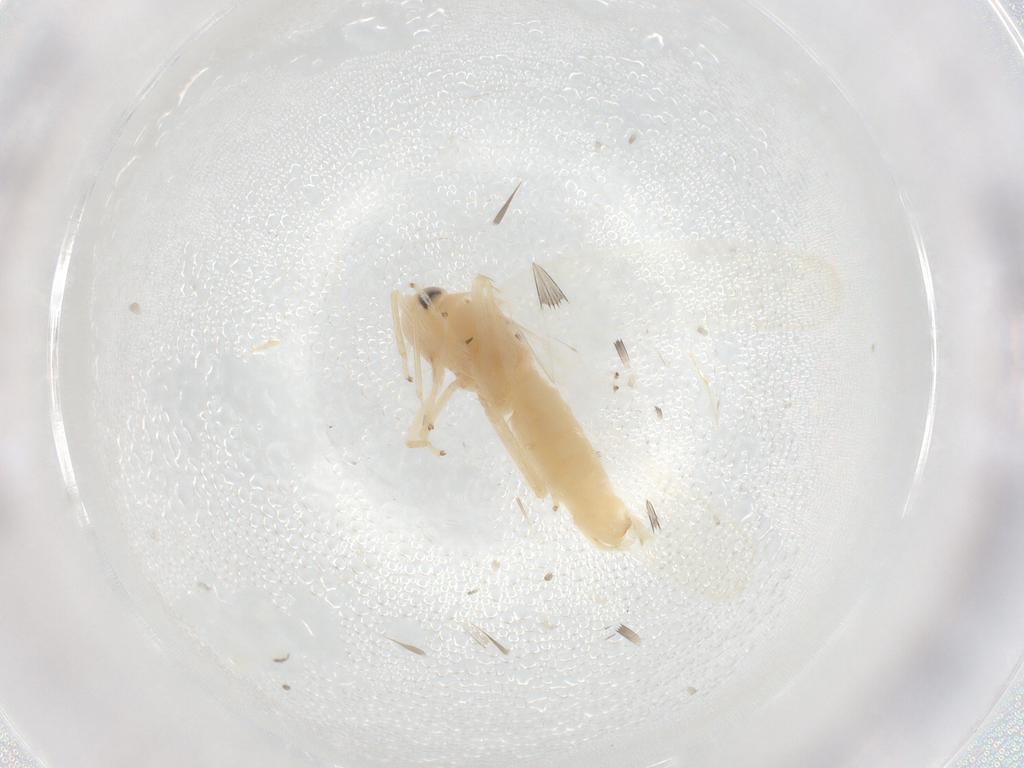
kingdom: Animalia
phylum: Arthropoda
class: Insecta
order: Hemiptera
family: Cicadellidae
